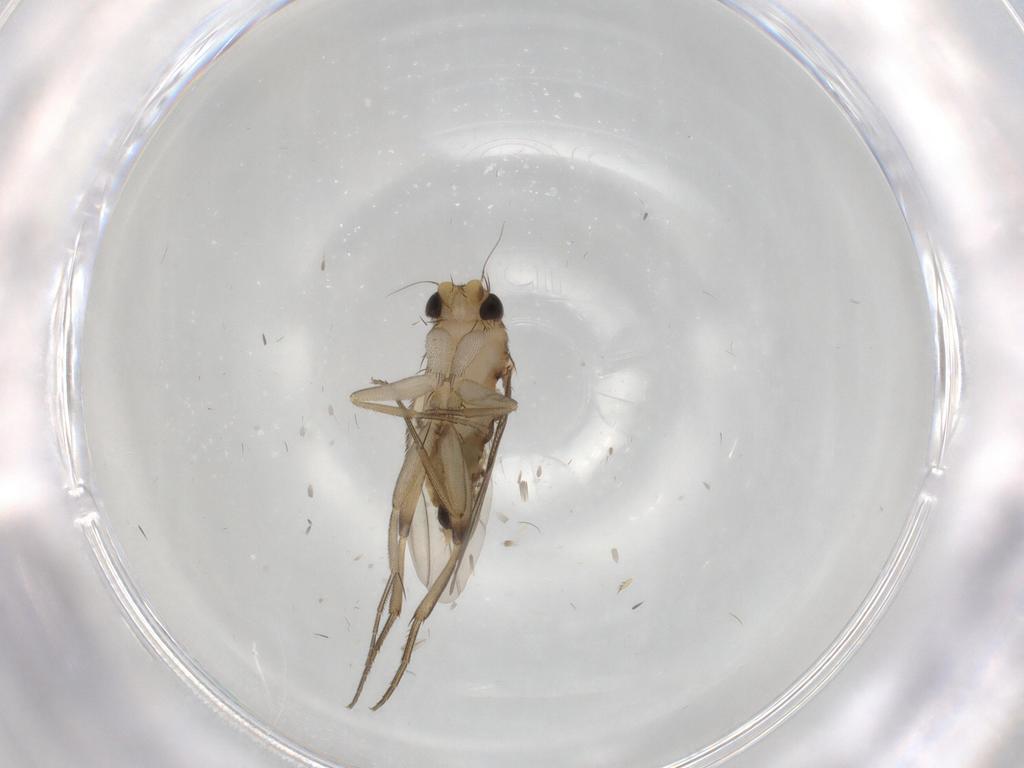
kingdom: Animalia
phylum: Arthropoda
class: Insecta
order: Diptera
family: Phoridae
